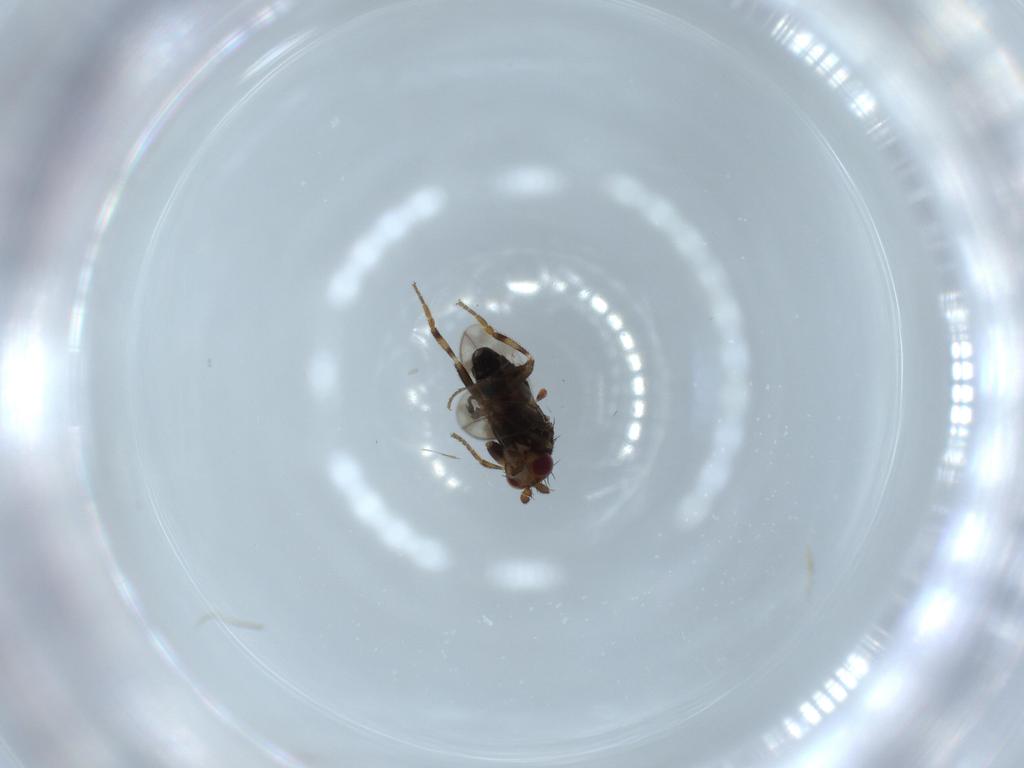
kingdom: Animalia
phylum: Arthropoda
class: Insecta
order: Diptera
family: Sphaeroceridae
